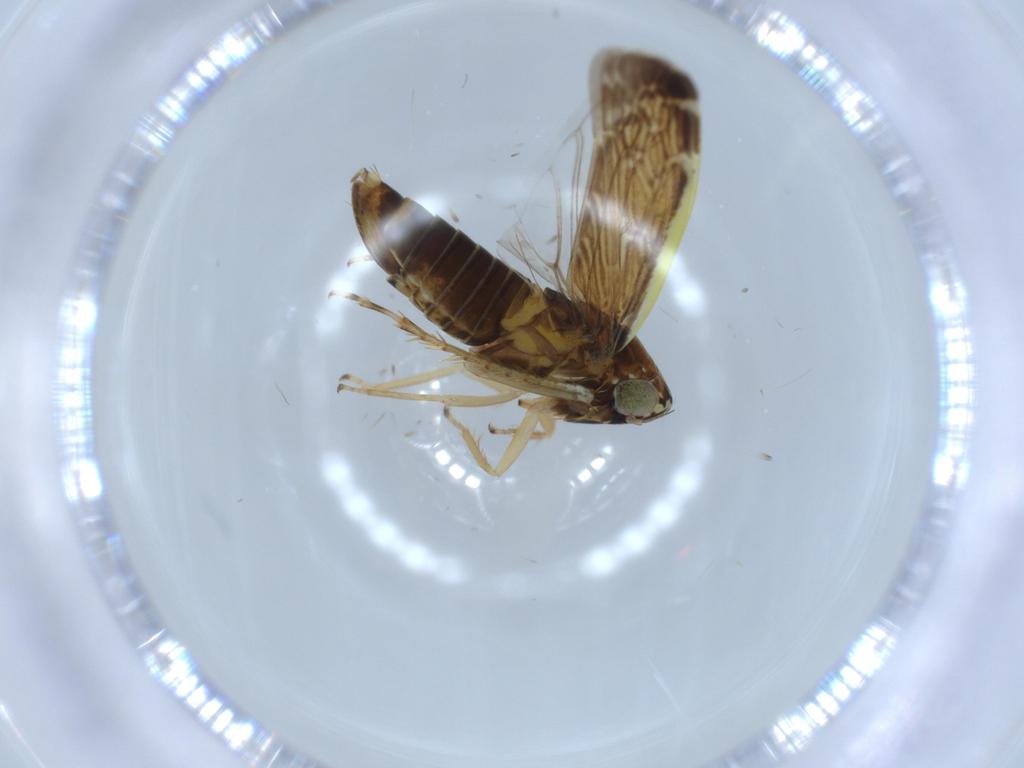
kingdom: Animalia
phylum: Arthropoda
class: Insecta
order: Hemiptera
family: Cicadellidae
